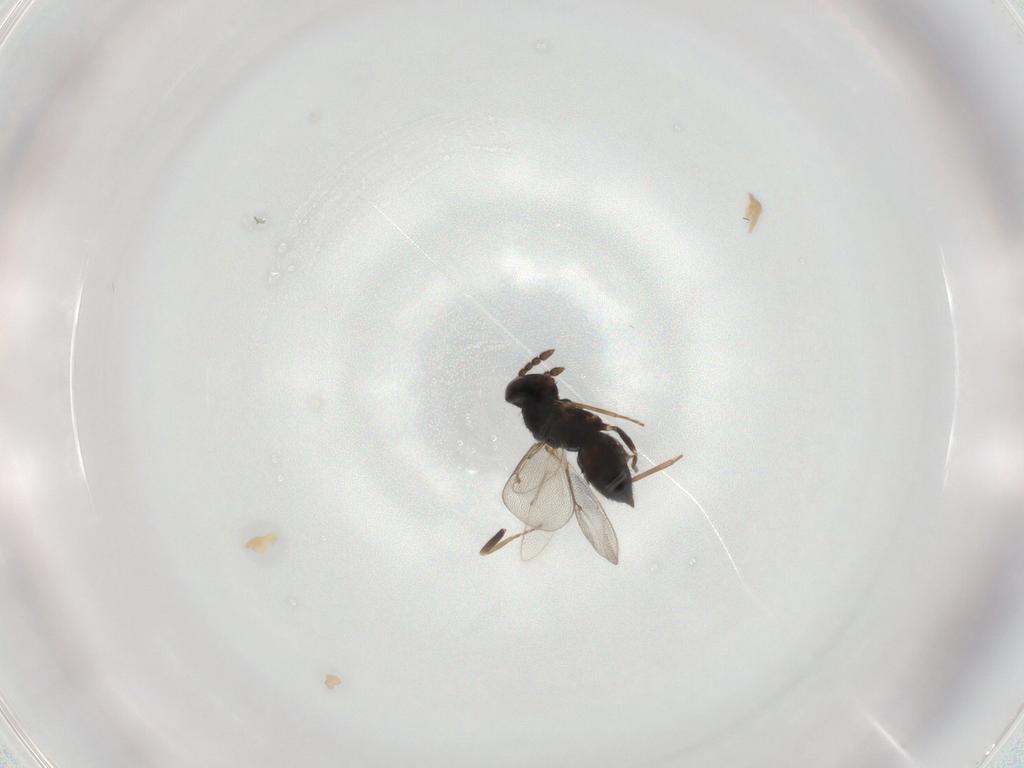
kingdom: Animalia
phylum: Arthropoda
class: Insecta
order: Hymenoptera
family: Eulophidae
